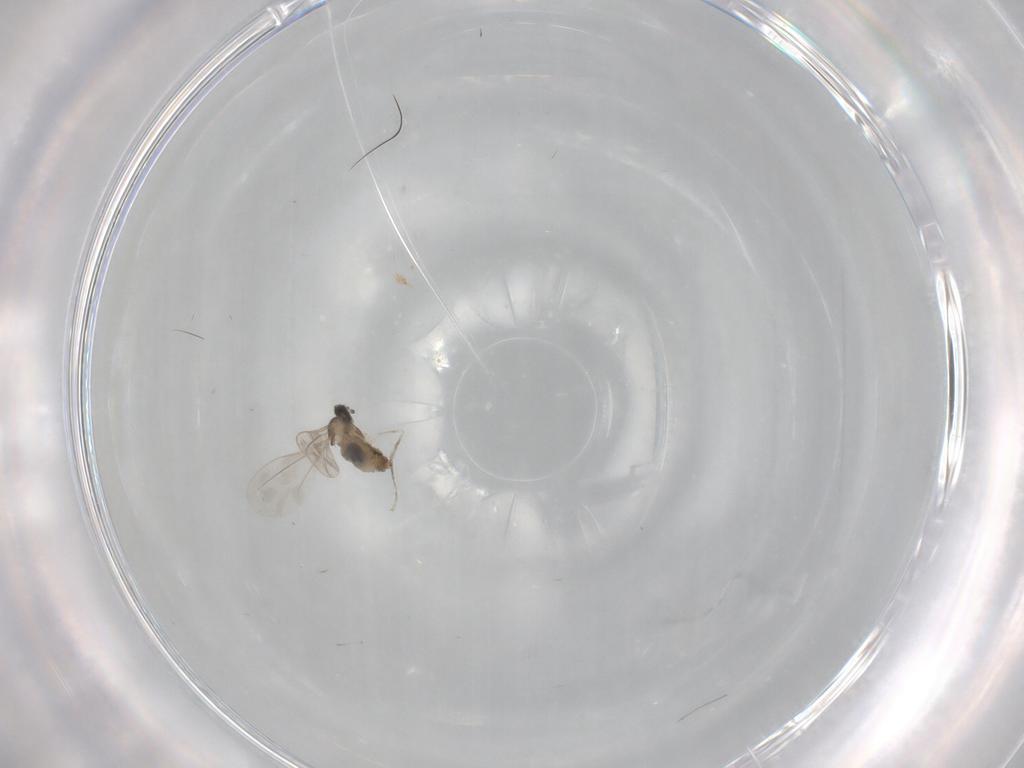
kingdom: Animalia
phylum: Arthropoda
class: Insecta
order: Diptera
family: Cecidomyiidae
